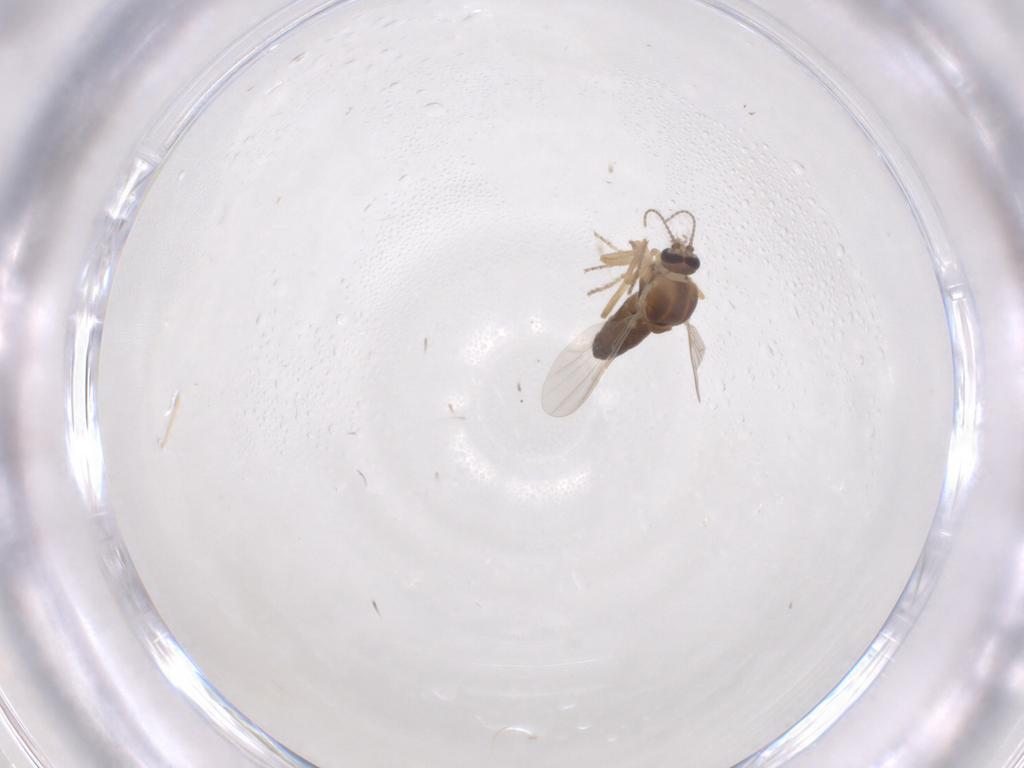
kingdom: Animalia
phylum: Arthropoda
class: Insecta
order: Diptera
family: Ceratopogonidae
